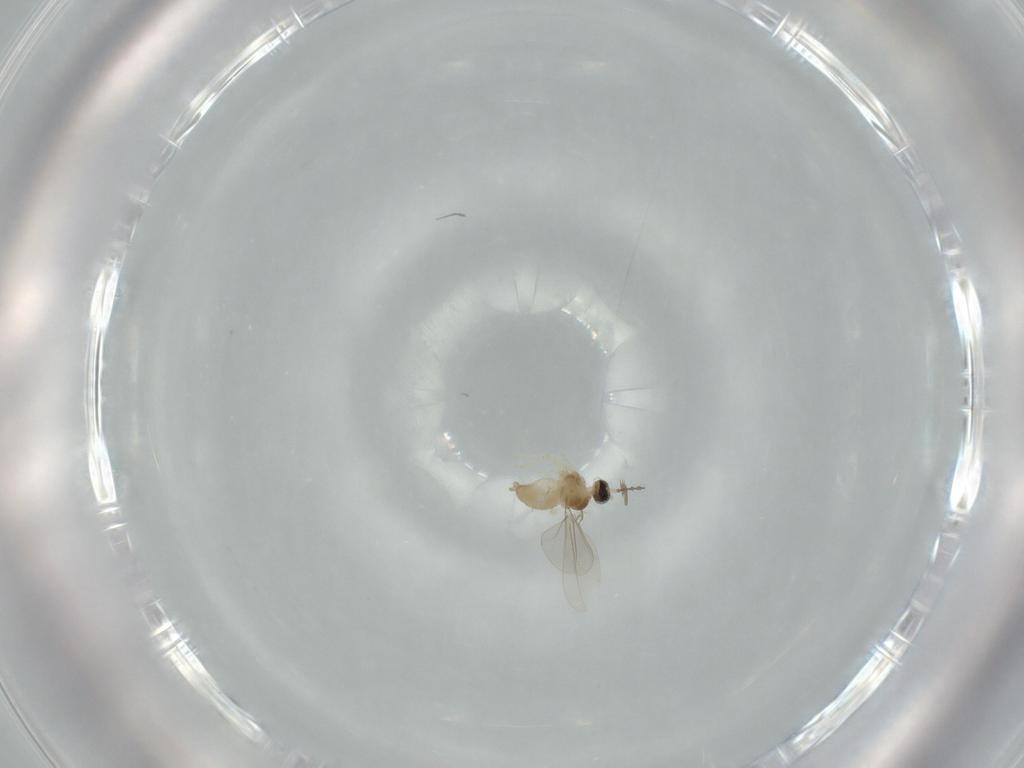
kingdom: Animalia
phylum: Arthropoda
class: Insecta
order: Diptera
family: Cecidomyiidae
